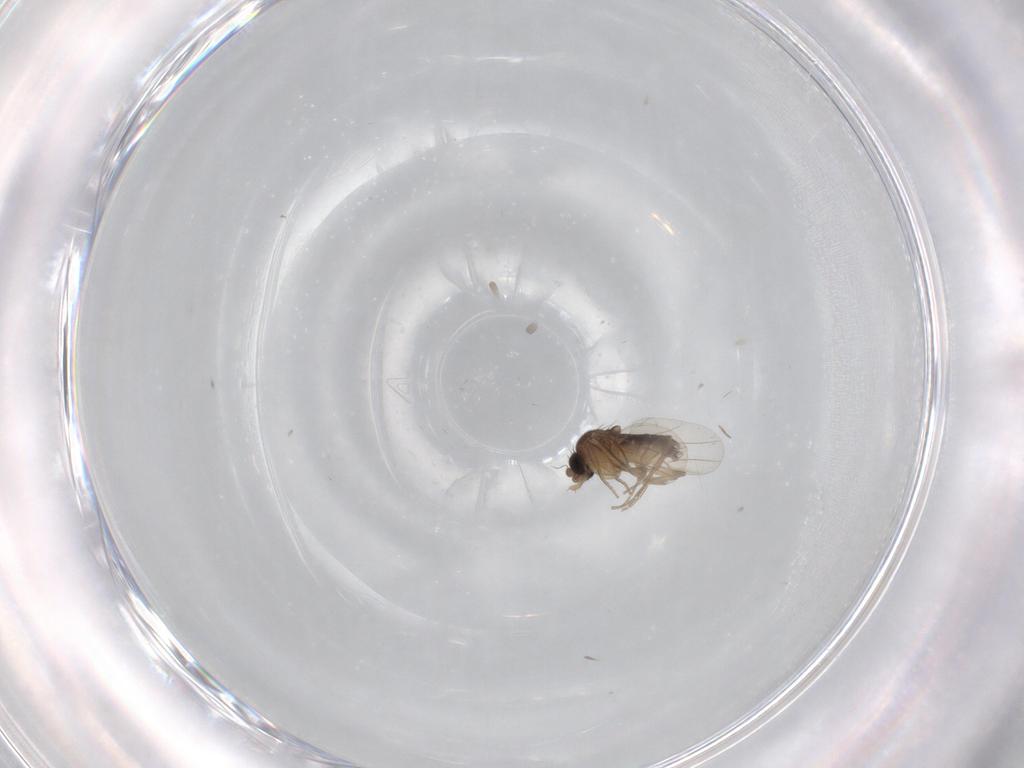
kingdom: Animalia
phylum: Arthropoda
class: Insecta
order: Diptera
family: Phoridae
